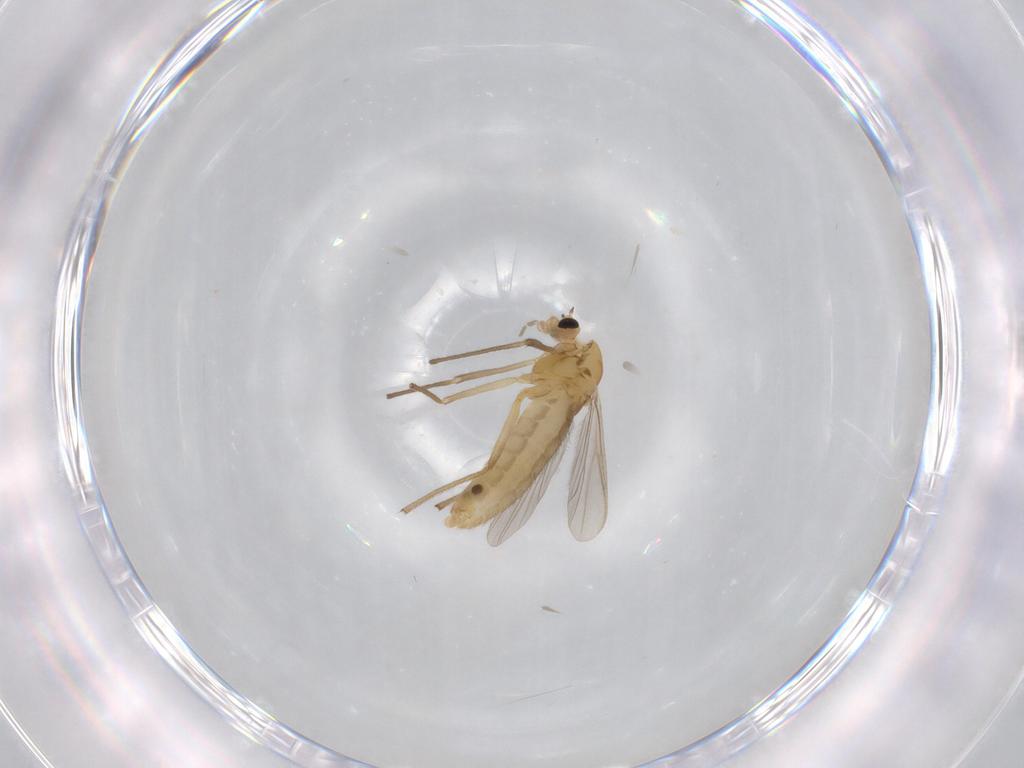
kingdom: Animalia
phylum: Arthropoda
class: Insecta
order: Diptera
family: Chironomidae
